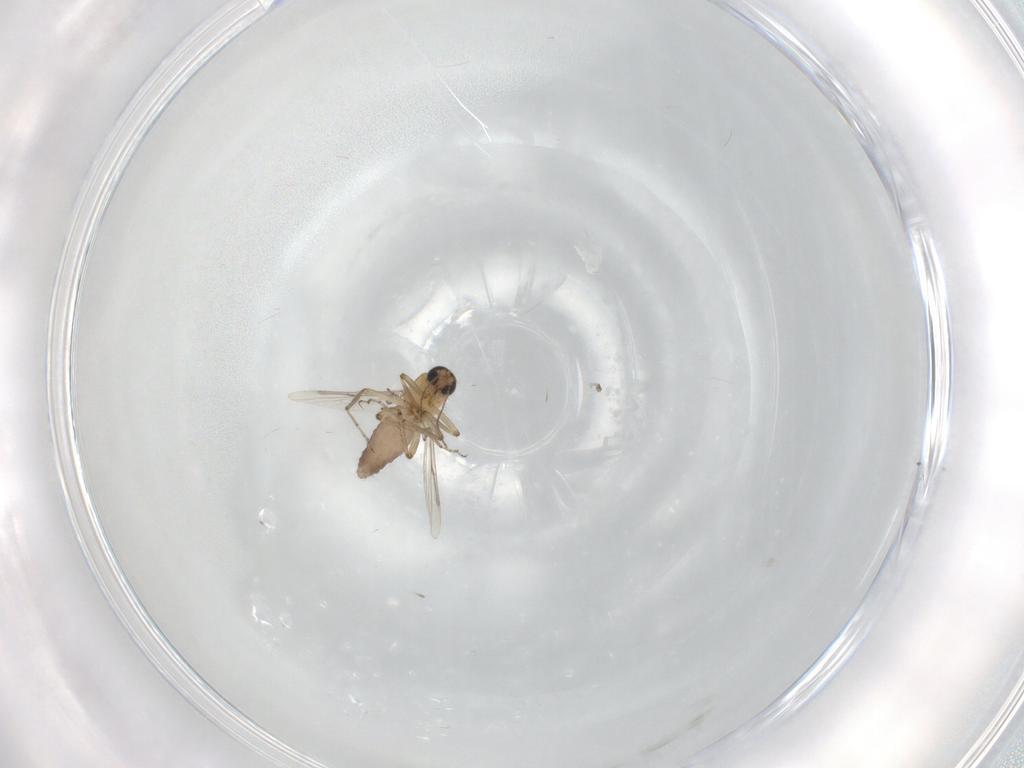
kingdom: Animalia
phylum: Arthropoda
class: Insecta
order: Diptera
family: Ceratopogonidae
